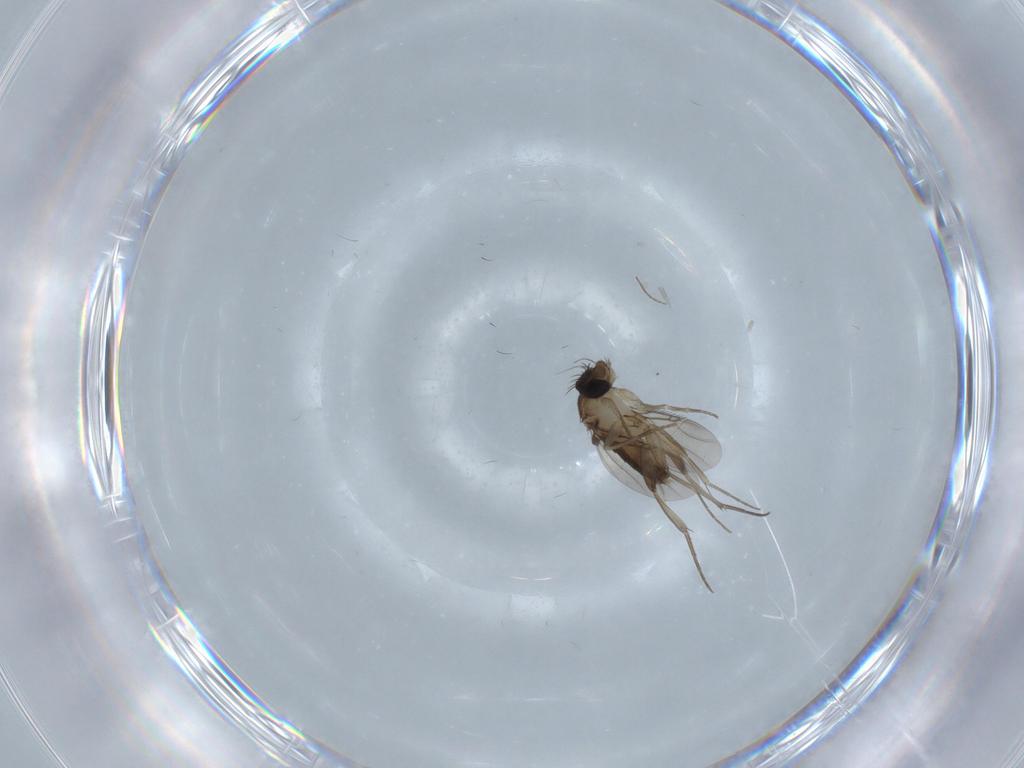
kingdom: Animalia
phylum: Arthropoda
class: Insecta
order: Diptera
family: Phoridae
